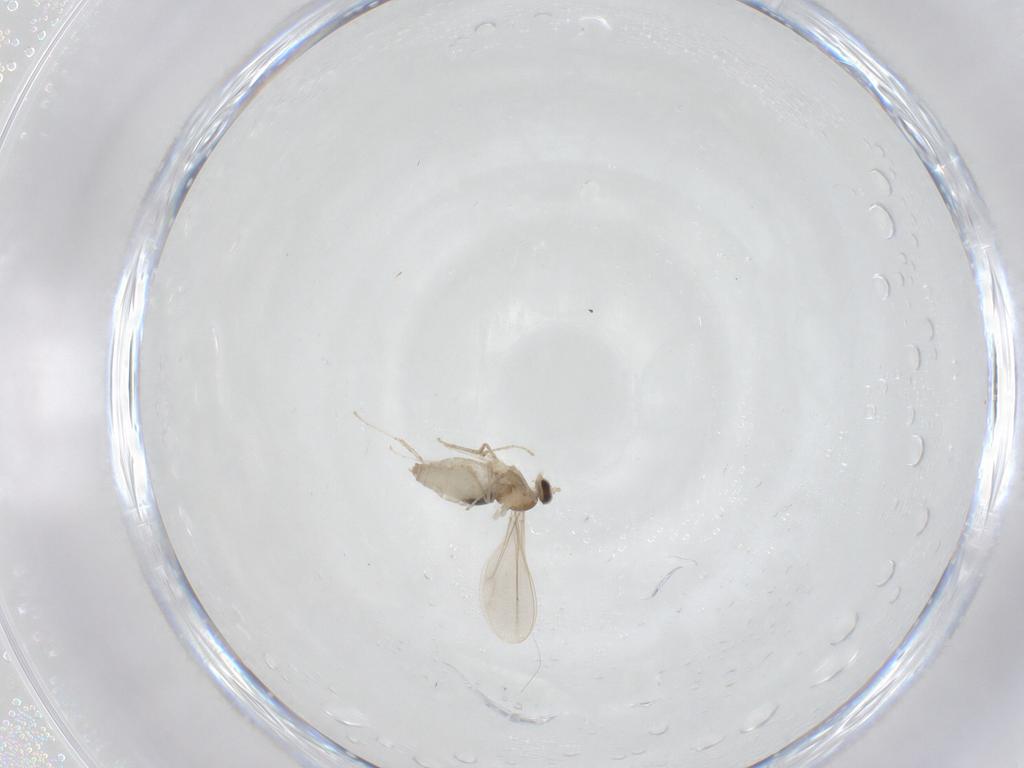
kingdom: Animalia
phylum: Arthropoda
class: Insecta
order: Diptera
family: Cecidomyiidae
